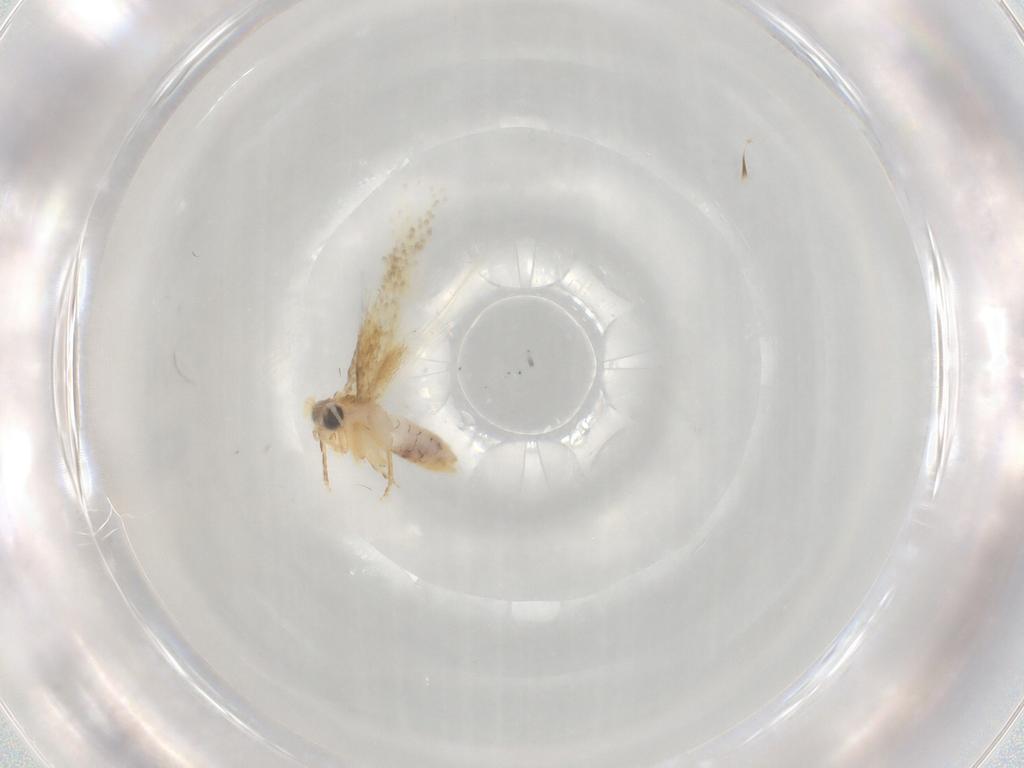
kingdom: Animalia
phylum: Arthropoda
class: Insecta
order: Lepidoptera
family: Nepticulidae
